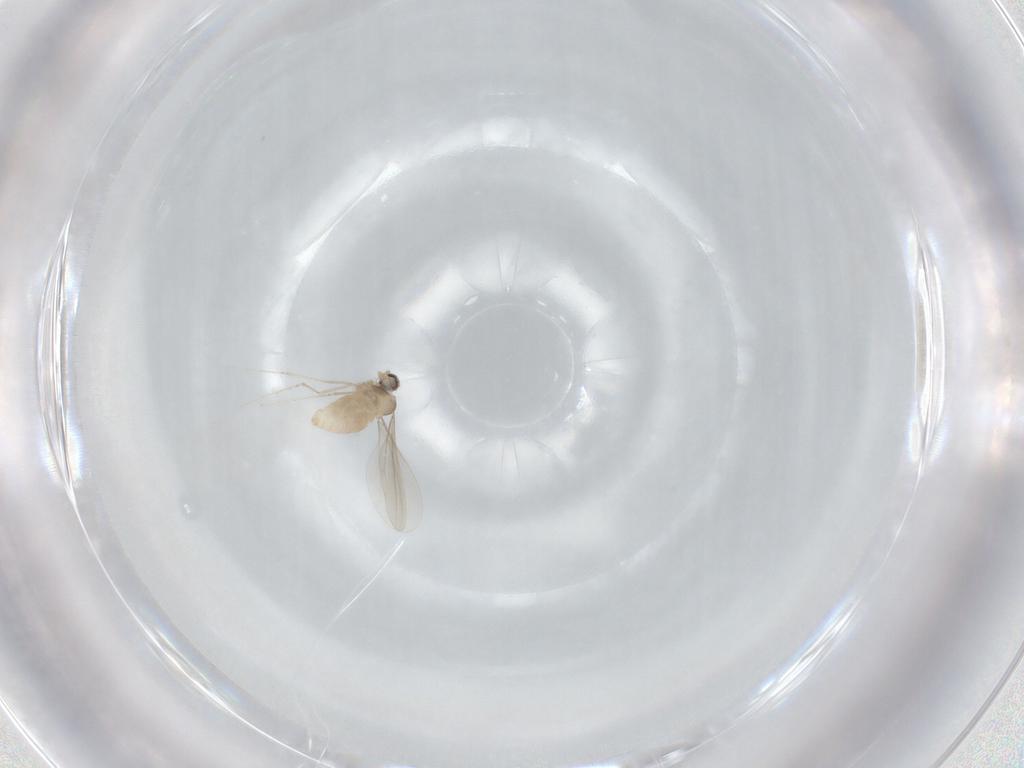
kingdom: Animalia
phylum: Arthropoda
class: Insecta
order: Diptera
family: Cecidomyiidae
